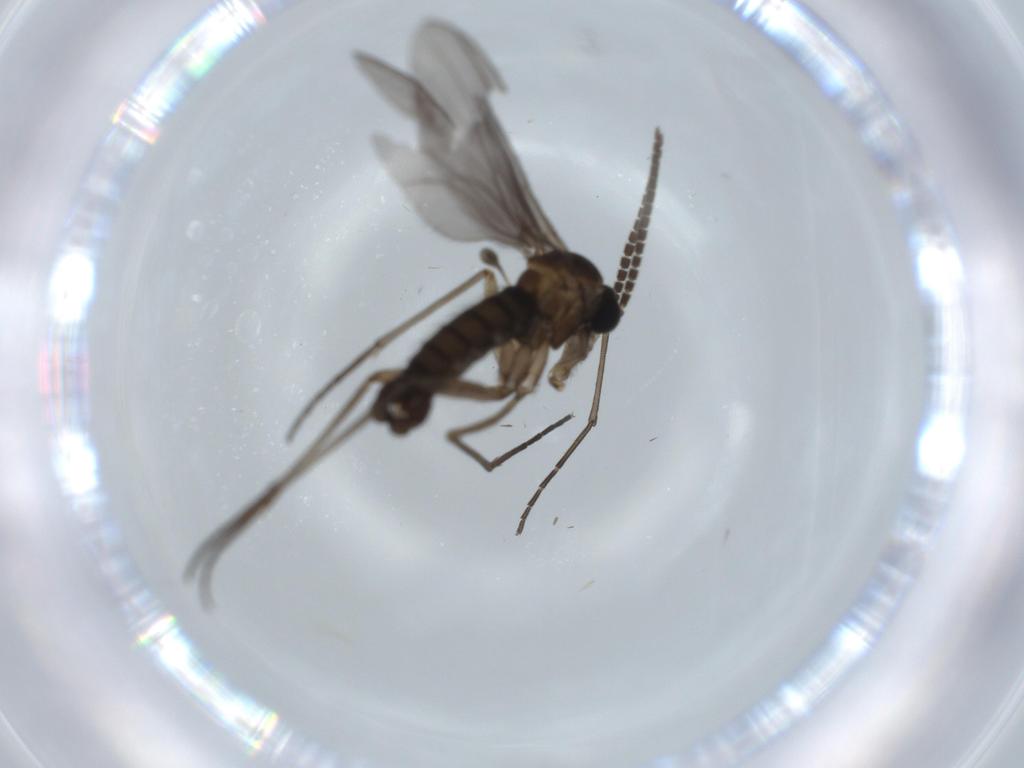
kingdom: Animalia
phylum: Arthropoda
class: Insecta
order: Diptera
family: Sciaridae
